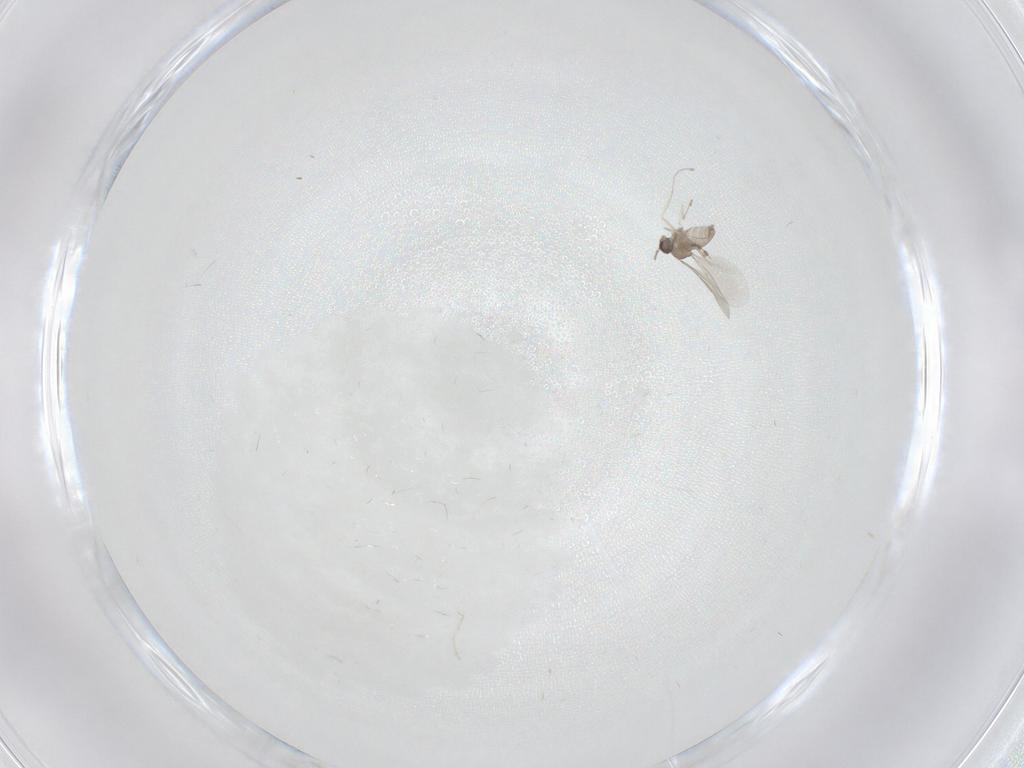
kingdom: Animalia
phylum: Arthropoda
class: Insecta
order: Diptera
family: Cecidomyiidae
